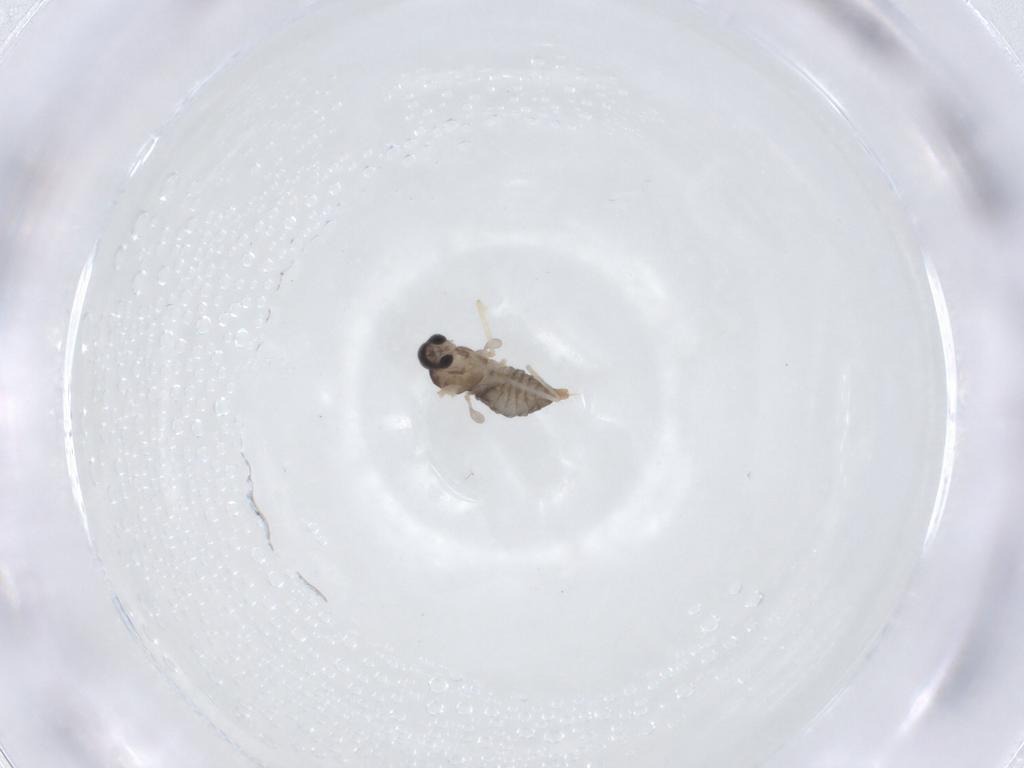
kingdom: Animalia
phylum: Arthropoda
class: Insecta
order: Diptera
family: Cecidomyiidae
